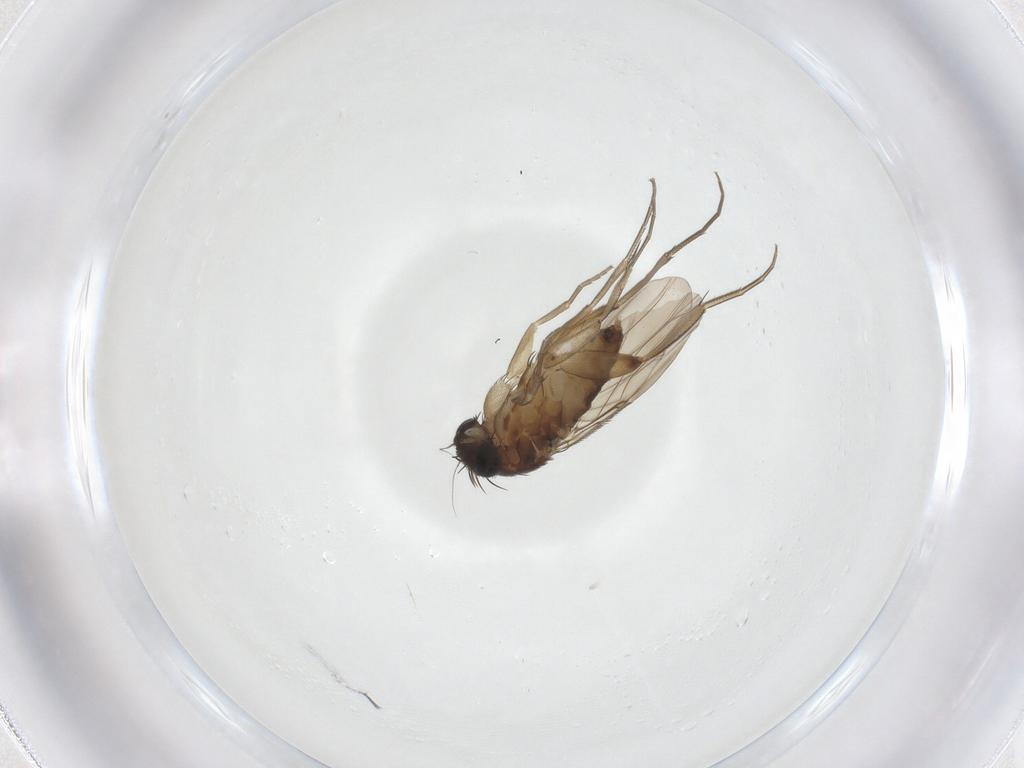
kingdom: Animalia
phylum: Arthropoda
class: Insecta
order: Diptera
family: Phoridae
